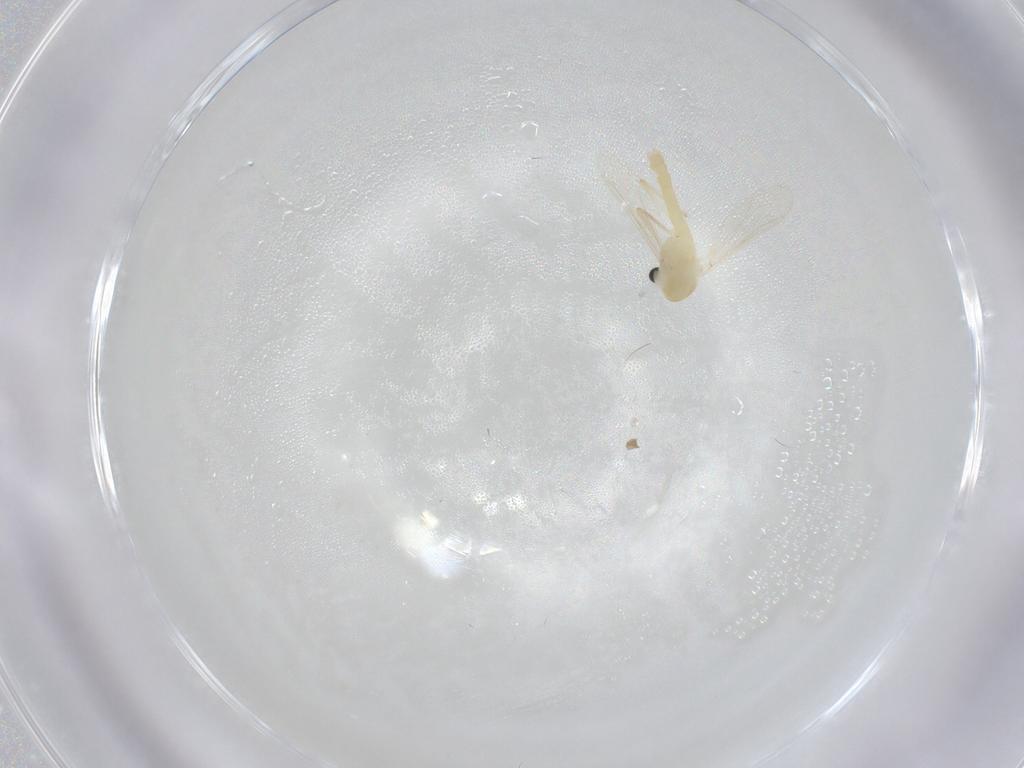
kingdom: Animalia
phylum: Arthropoda
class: Insecta
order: Diptera
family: Chironomidae
